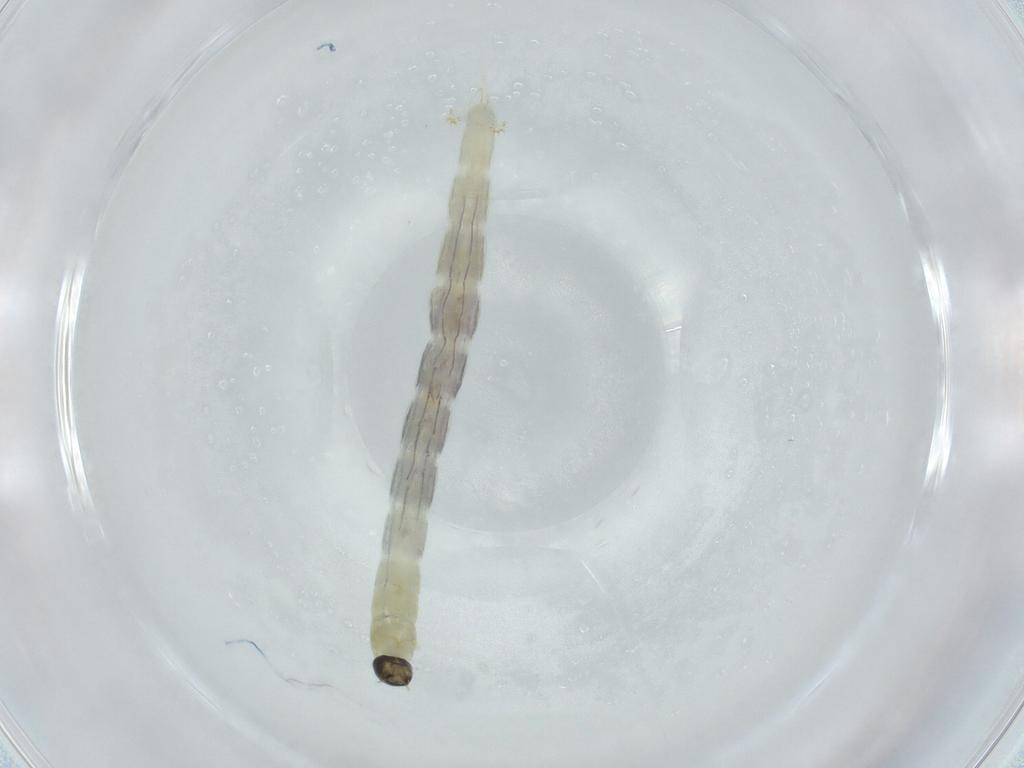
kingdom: Animalia
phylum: Arthropoda
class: Insecta
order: Diptera
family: Chironomidae
